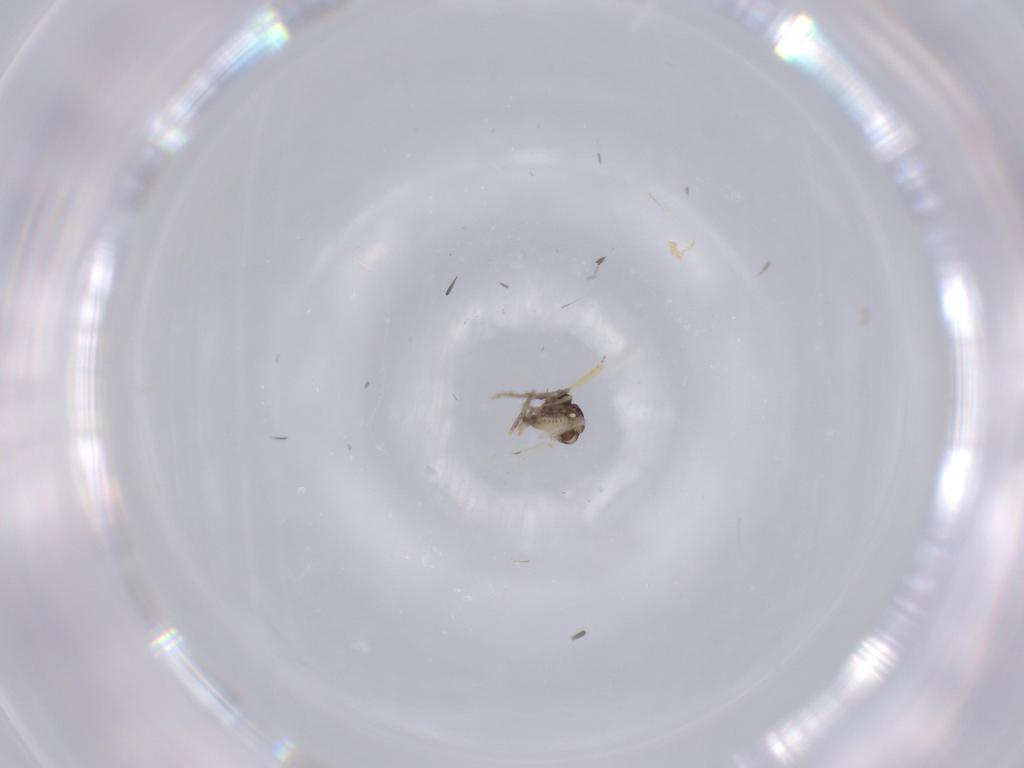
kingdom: Animalia
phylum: Arthropoda
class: Insecta
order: Diptera
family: Ceratopogonidae
